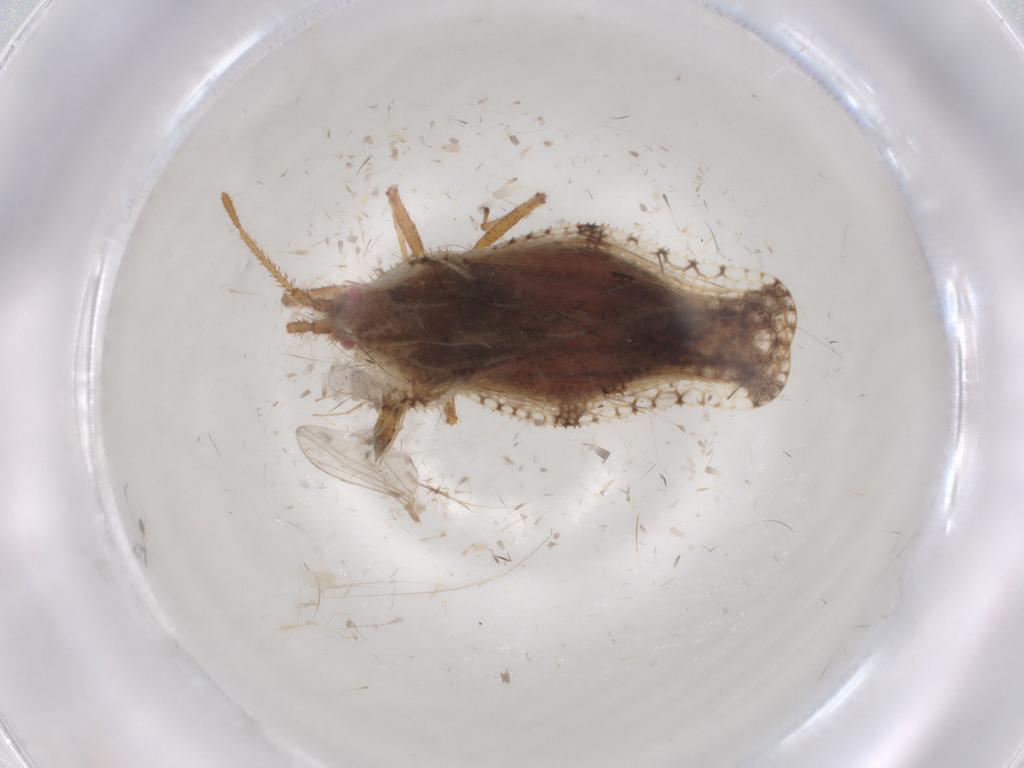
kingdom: Animalia
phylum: Arthropoda
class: Insecta
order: Hemiptera
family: Tingidae
